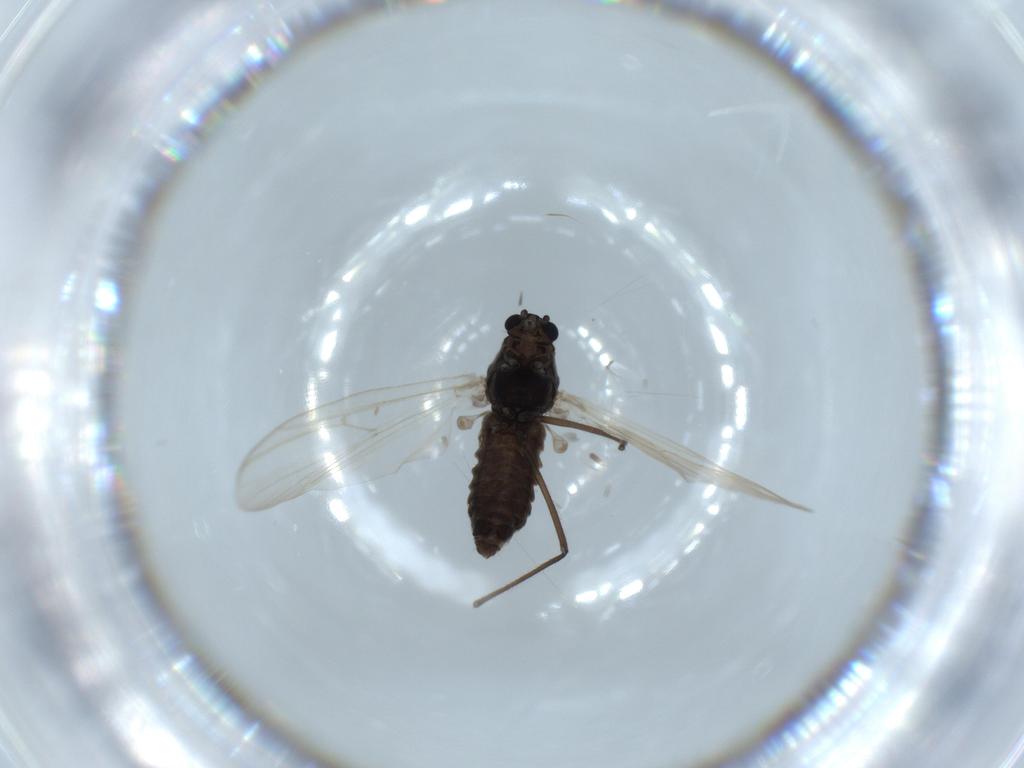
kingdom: Animalia
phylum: Arthropoda
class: Insecta
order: Diptera
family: Chironomidae
